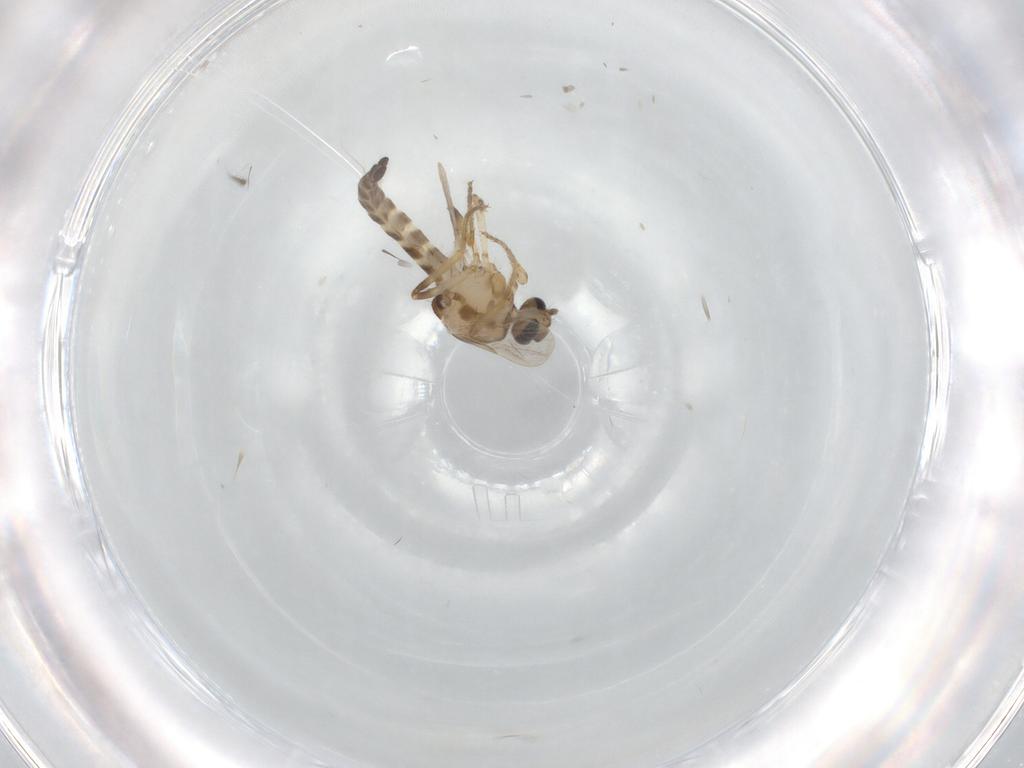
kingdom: Animalia
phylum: Arthropoda
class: Insecta
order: Diptera
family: Ceratopogonidae
